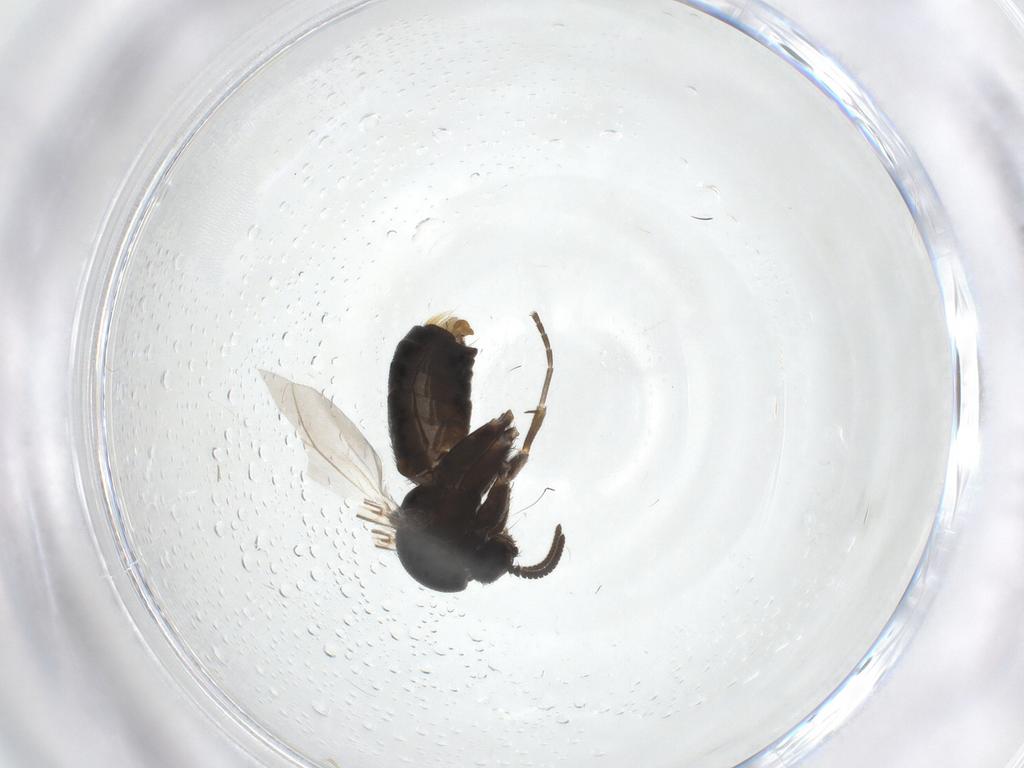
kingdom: Animalia
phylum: Arthropoda
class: Insecta
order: Diptera
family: Mycetophilidae
